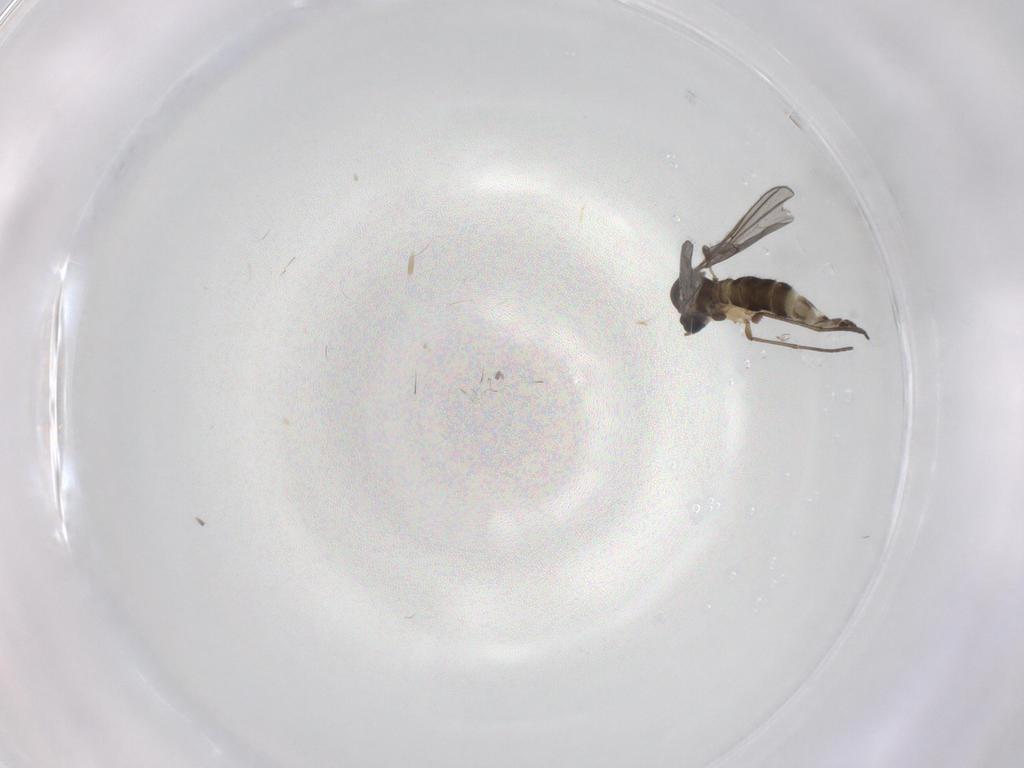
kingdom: Animalia
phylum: Arthropoda
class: Insecta
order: Diptera
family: Sciaridae
